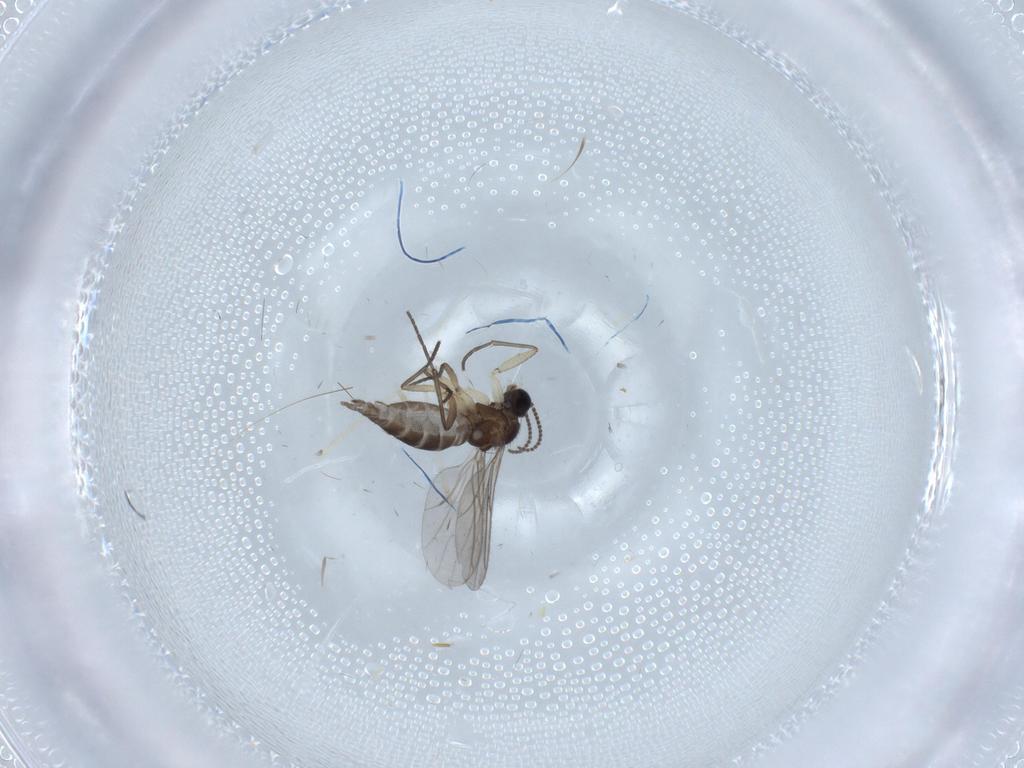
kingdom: Animalia
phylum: Arthropoda
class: Insecta
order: Diptera
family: Sciaridae
